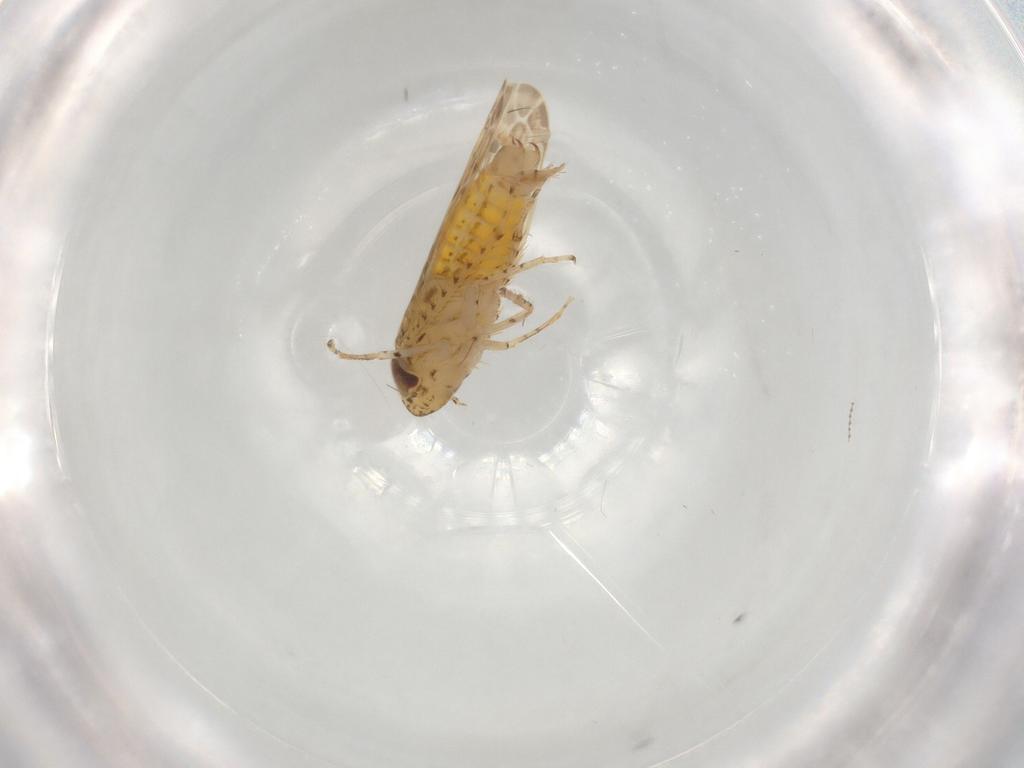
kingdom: Animalia
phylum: Arthropoda
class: Insecta
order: Hemiptera
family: Cicadellidae
